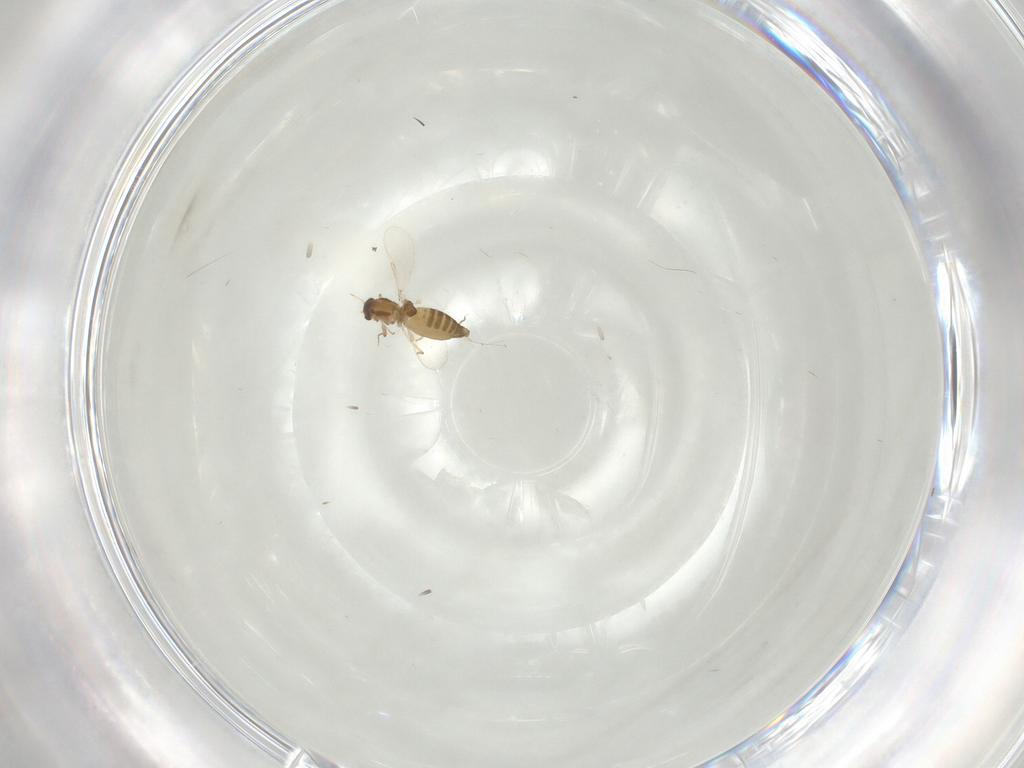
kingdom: Animalia
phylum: Arthropoda
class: Insecta
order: Diptera
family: Chironomidae
